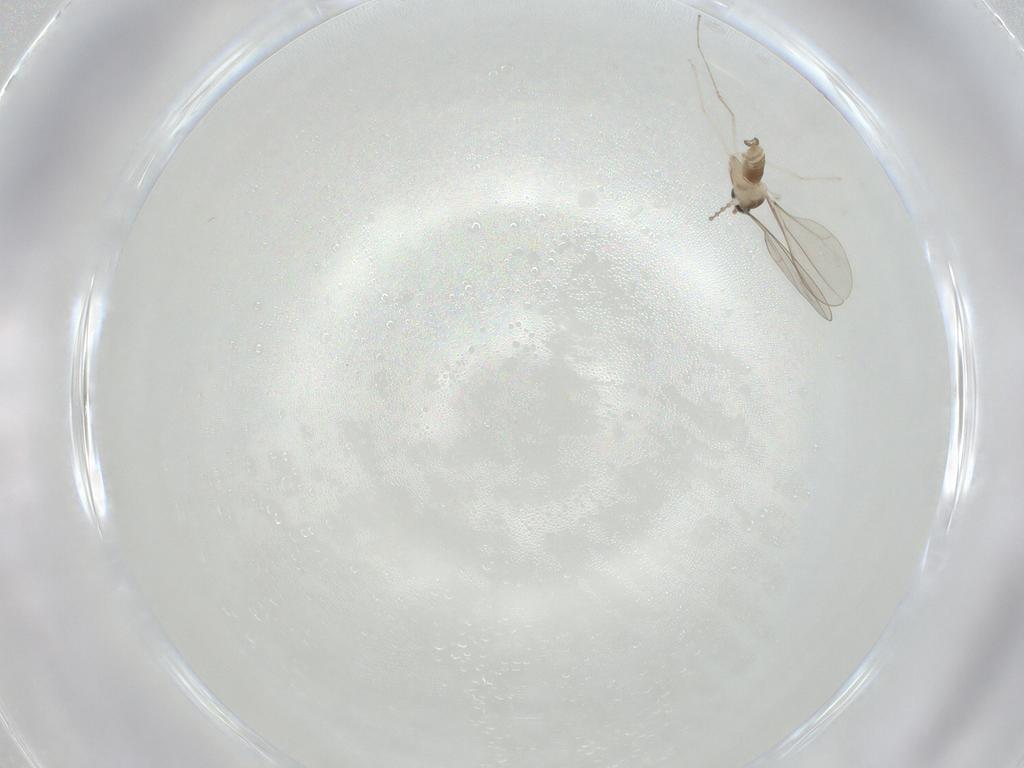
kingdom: Animalia
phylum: Arthropoda
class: Insecta
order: Diptera
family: Cecidomyiidae
